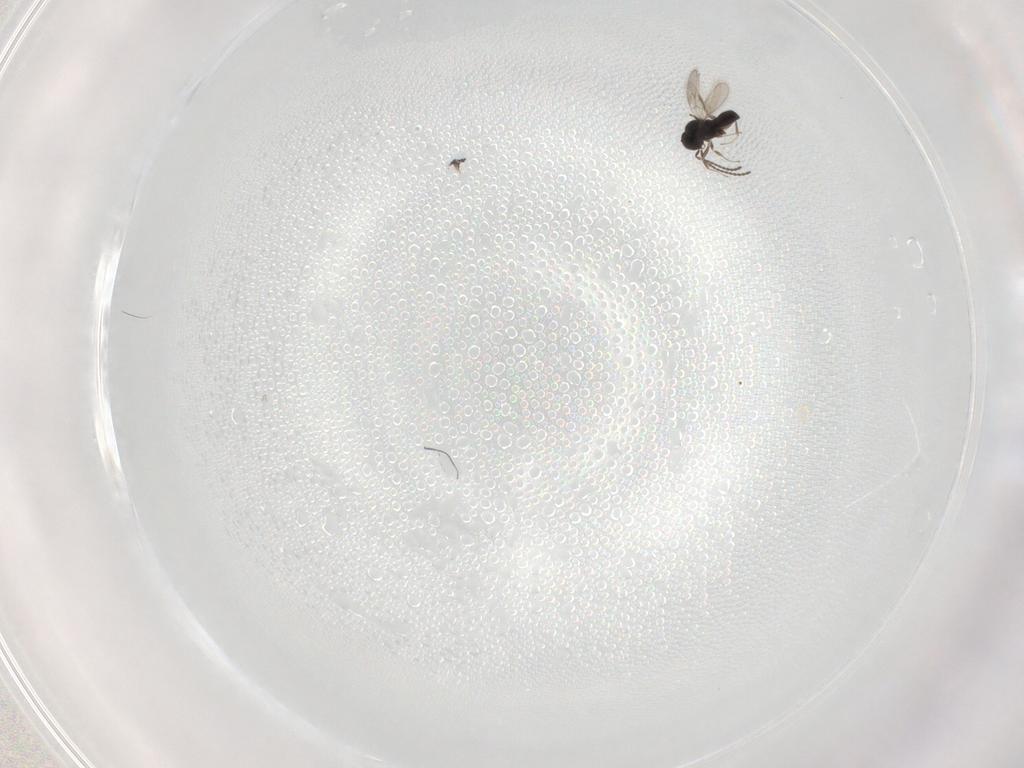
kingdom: Animalia
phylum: Arthropoda
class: Insecta
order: Hymenoptera
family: Scelionidae
